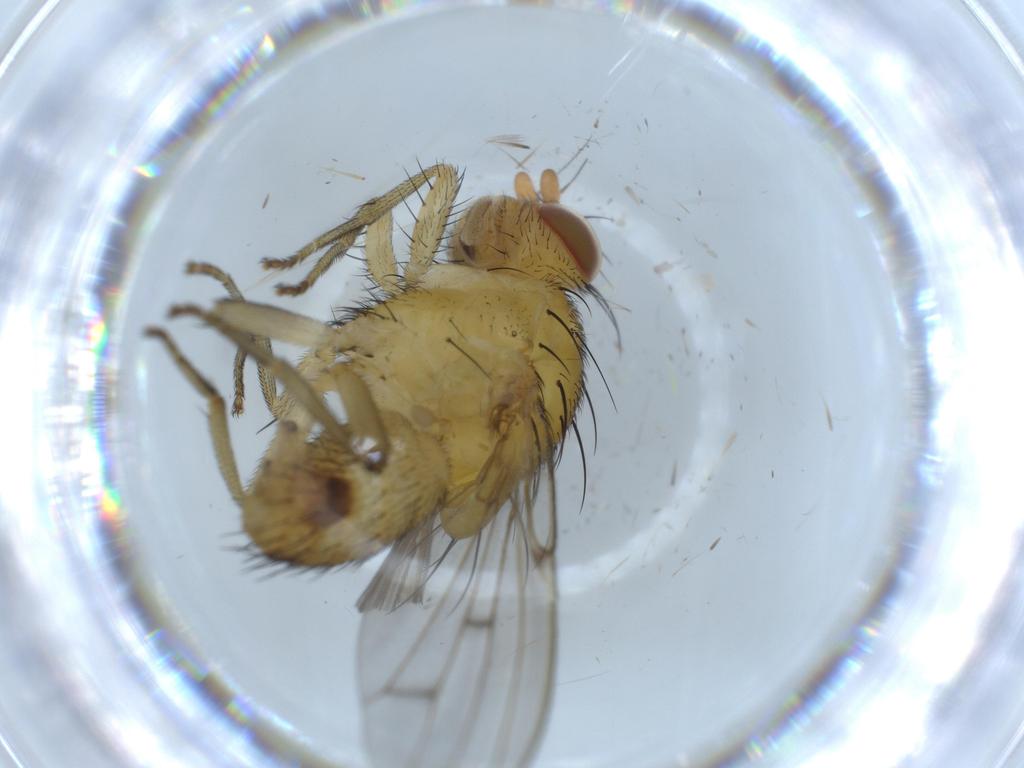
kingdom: Animalia
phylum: Arthropoda
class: Insecta
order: Diptera
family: Sciaridae
